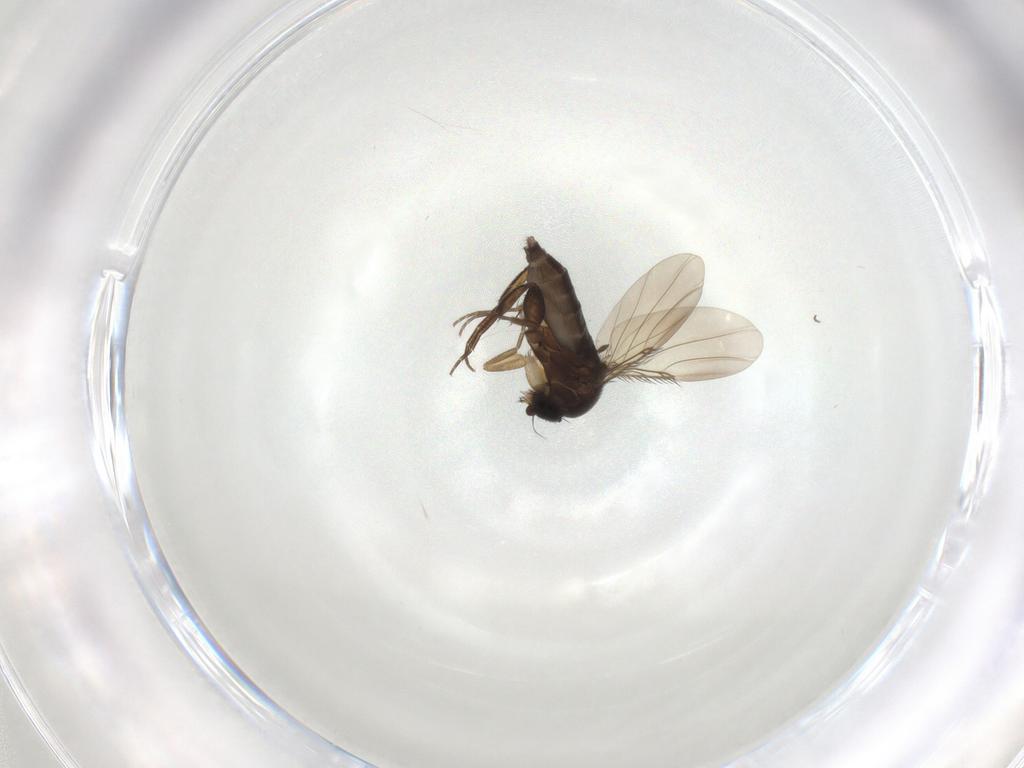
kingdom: Animalia
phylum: Arthropoda
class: Insecta
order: Diptera
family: Phoridae
